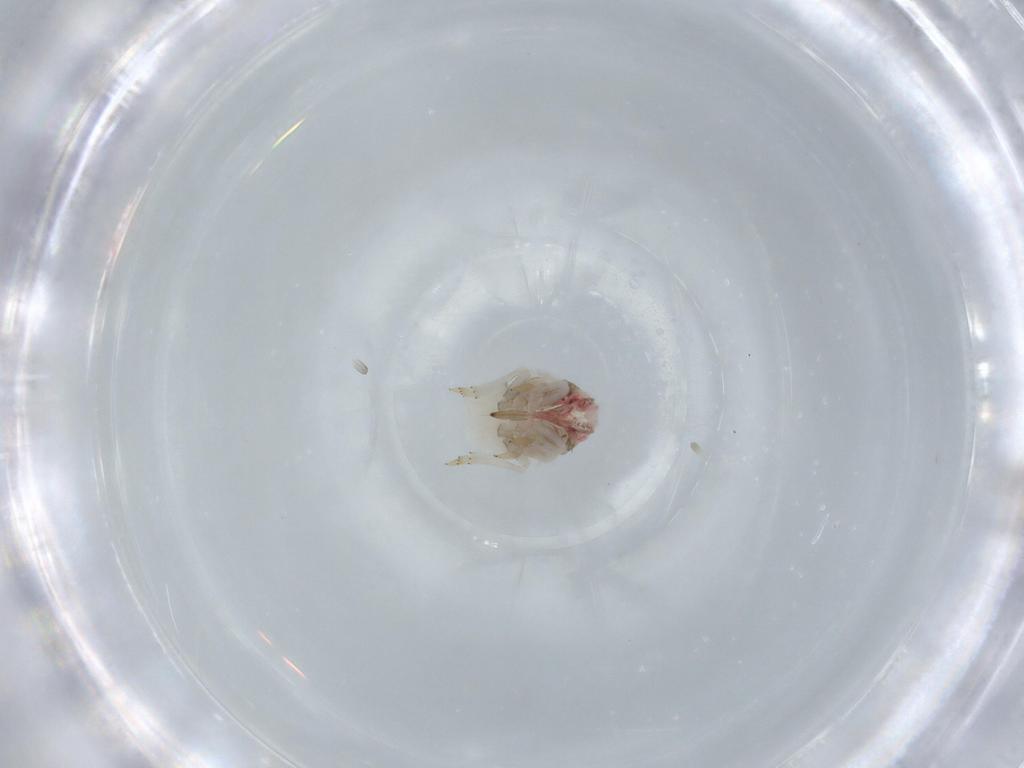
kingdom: Animalia
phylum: Arthropoda
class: Insecta
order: Hemiptera
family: Acanaloniidae
